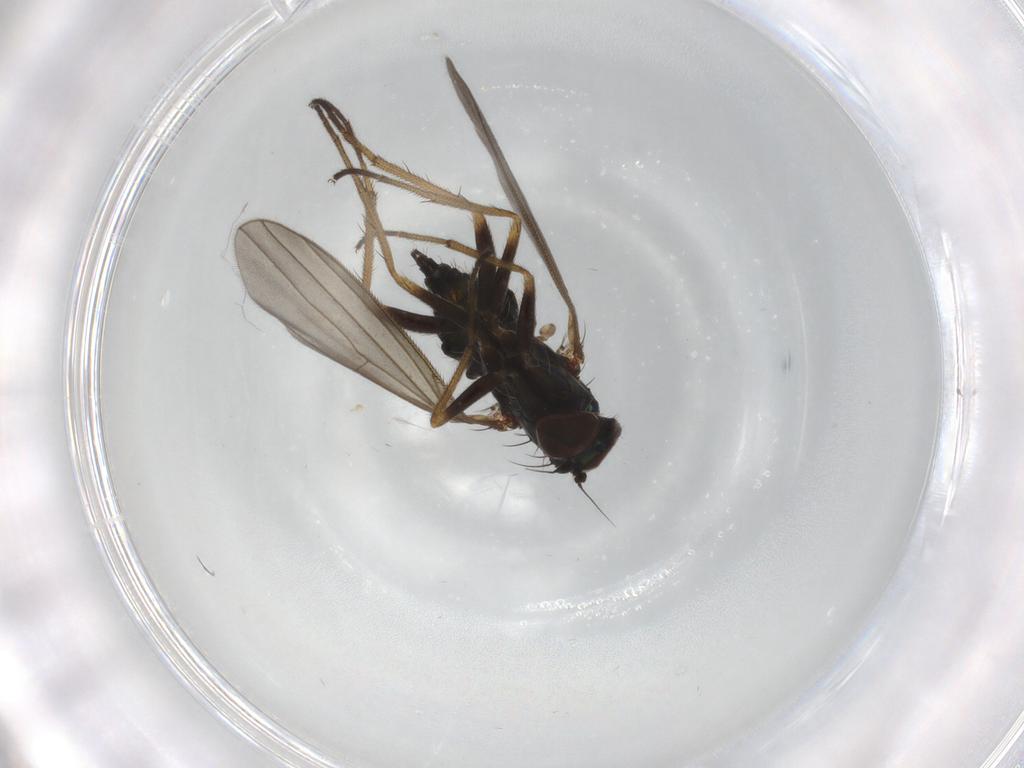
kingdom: Animalia
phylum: Arthropoda
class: Insecta
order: Diptera
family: Dolichopodidae
